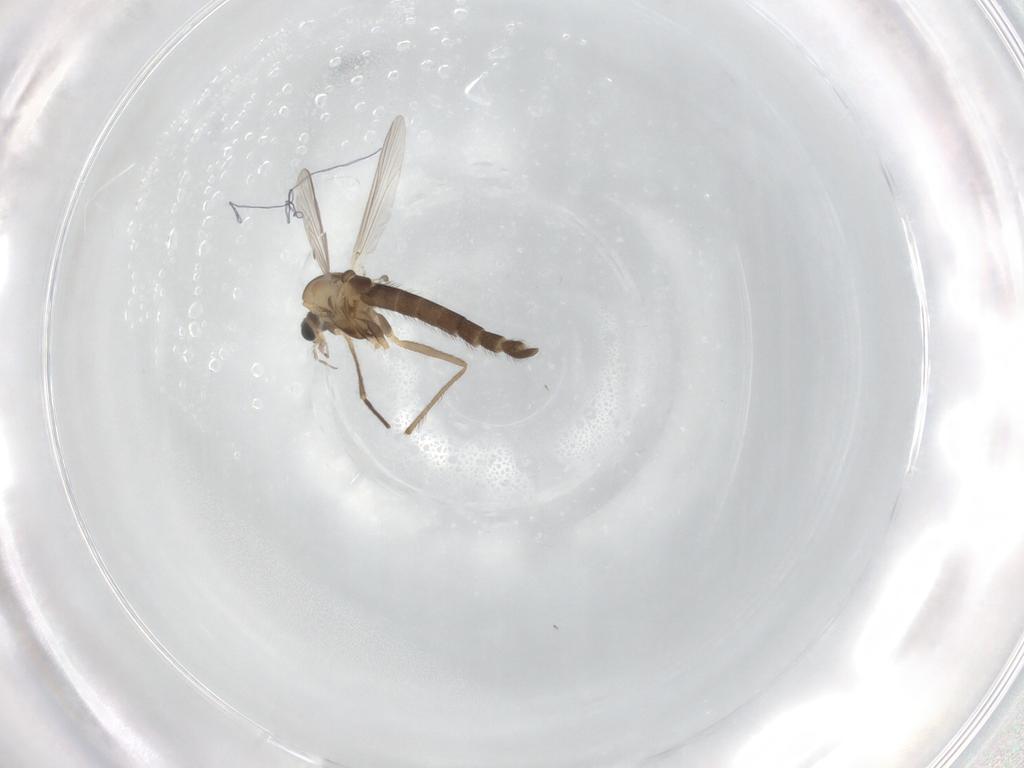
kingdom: Animalia
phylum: Arthropoda
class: Insecta
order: Diptera
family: Chironomidae
